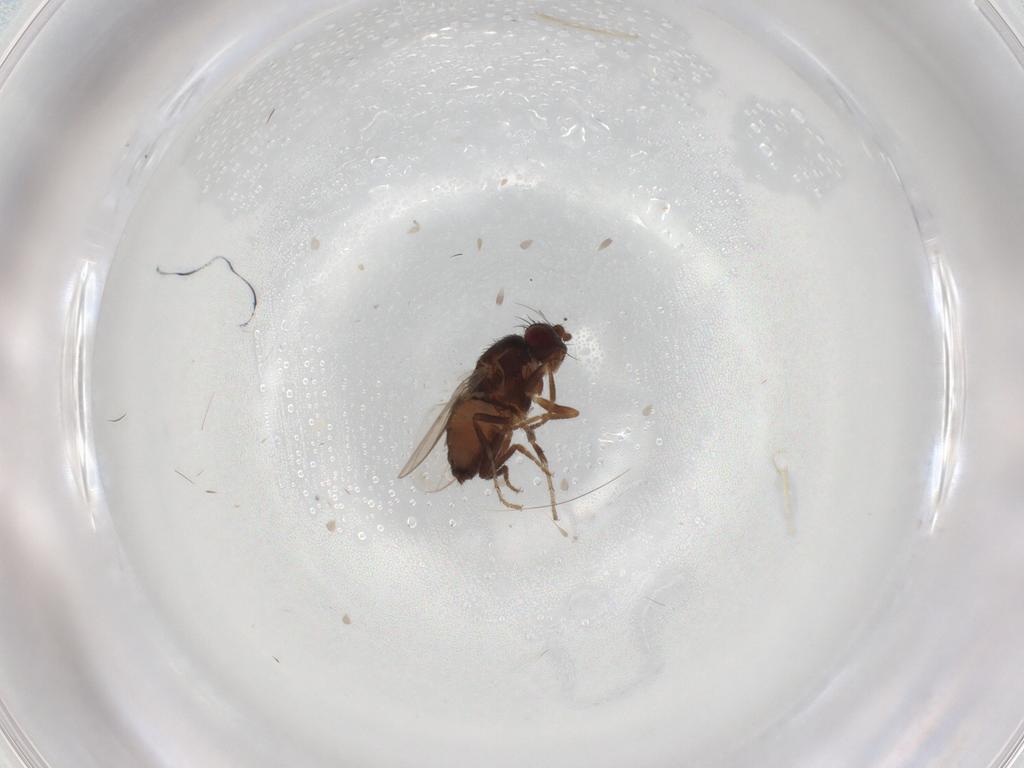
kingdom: Animalia
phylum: Arthropoda
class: Insecta
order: Diptera
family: Sphaeroceridae
